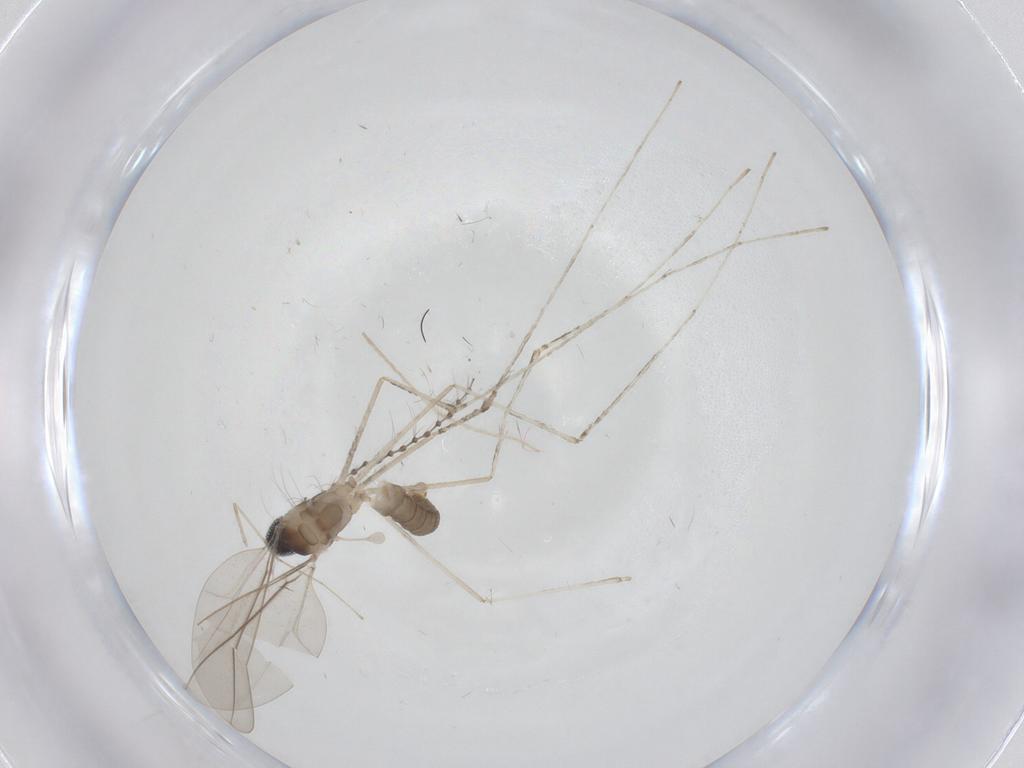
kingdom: Animalia
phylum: Arthropoda
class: Insecta
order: Diptera
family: Cecidomyiidae
